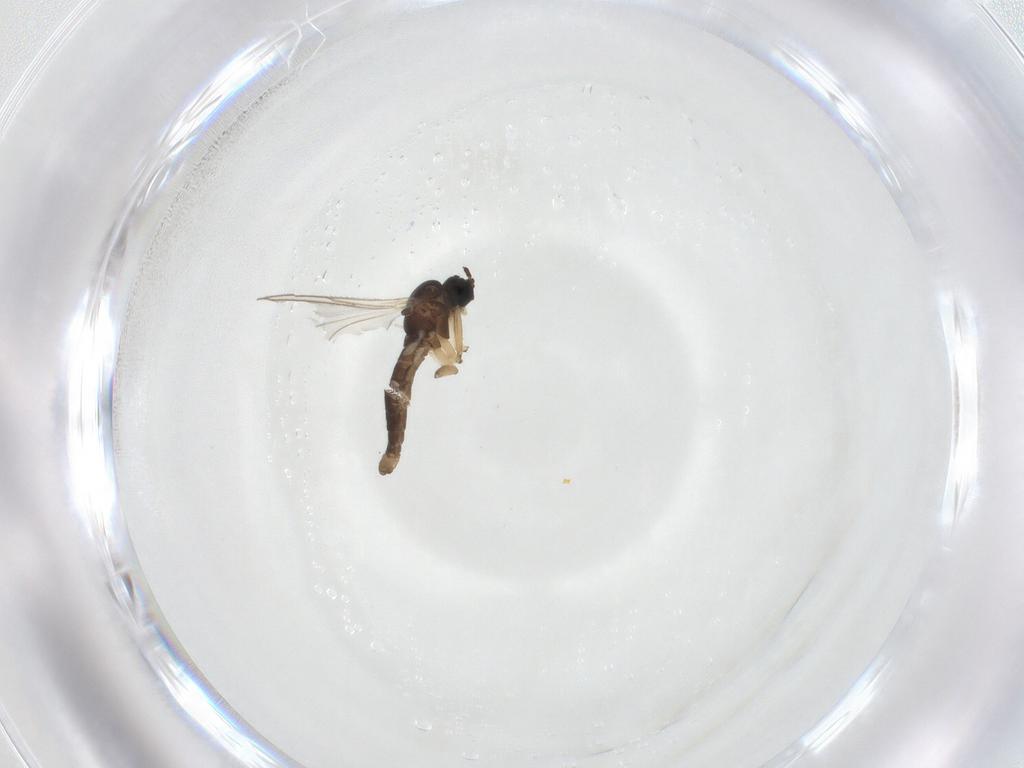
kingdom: Animalia
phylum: Arthropoda
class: Insecta
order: Diptera
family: Sciaridae
